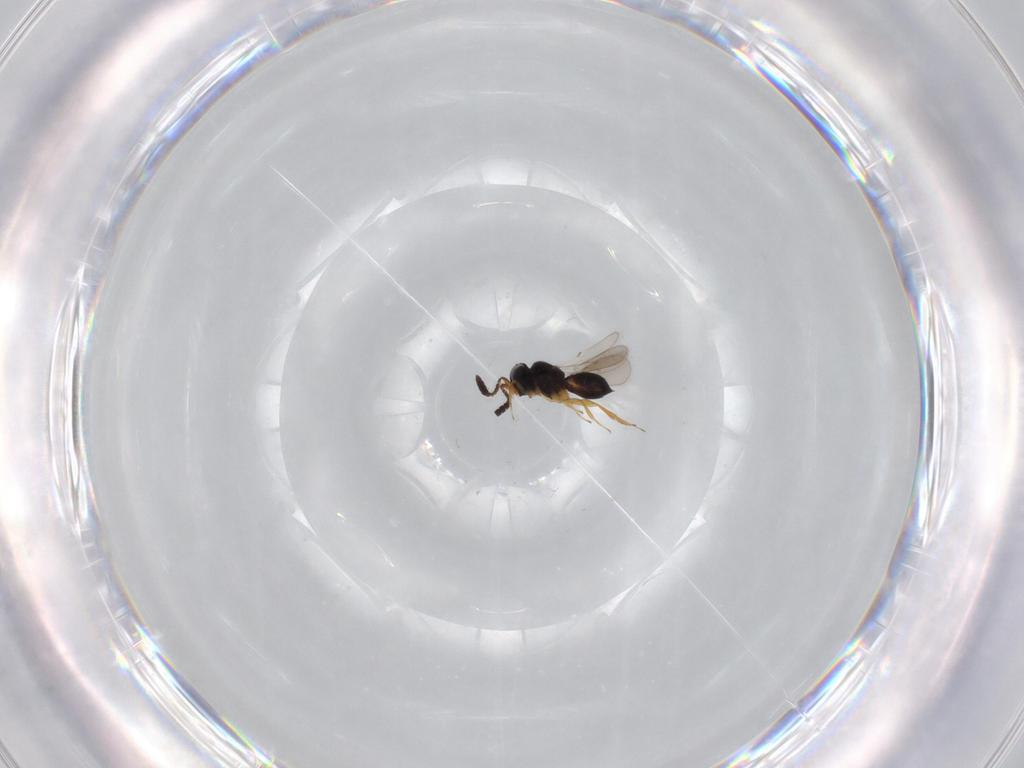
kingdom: Animalia
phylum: Arthropoda
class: Insecta
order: Hymenoptera
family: Scelionidae
